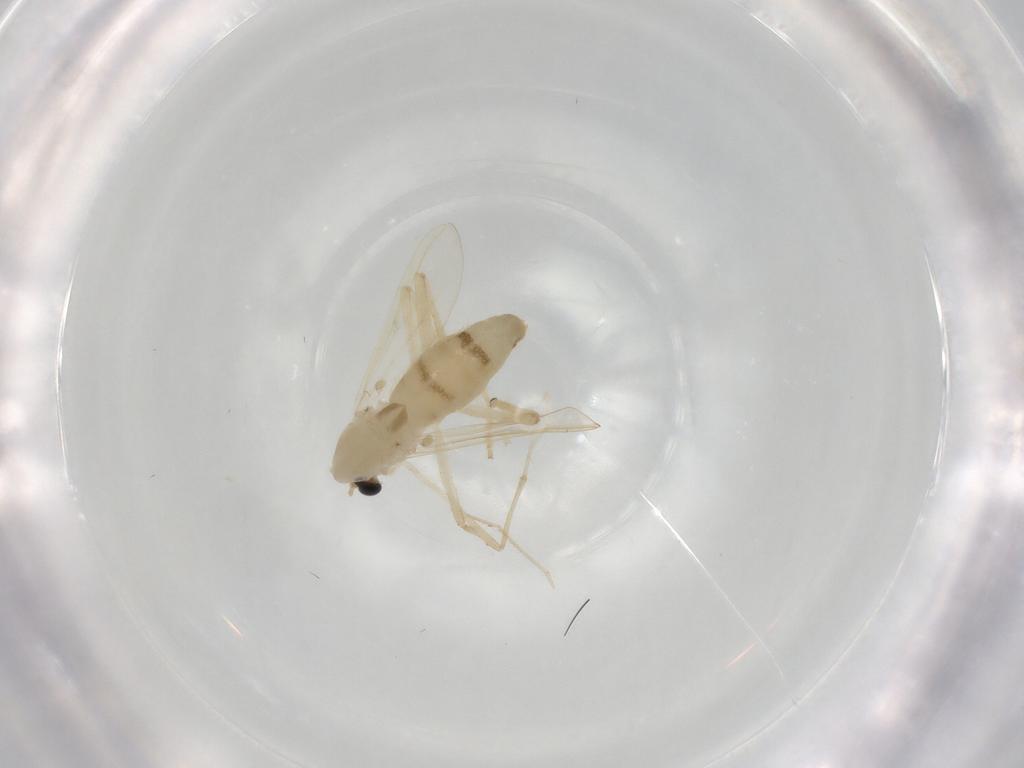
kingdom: Animalia
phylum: Arthropoda
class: Insecta
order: Diptera
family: Chironomidae
